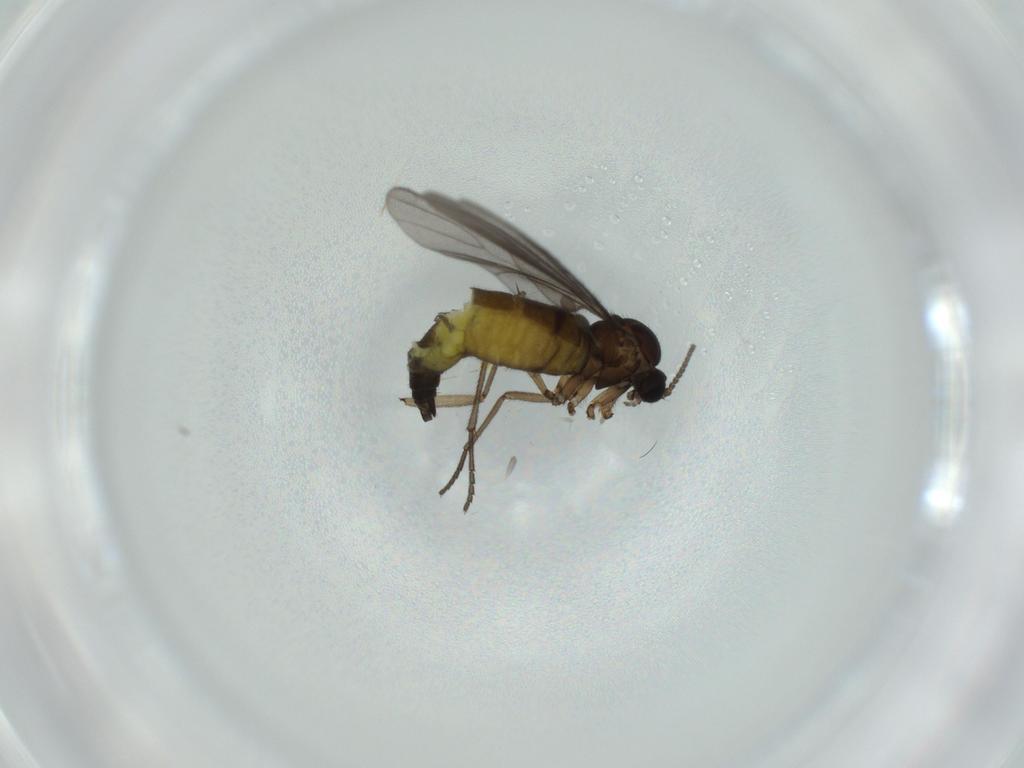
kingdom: Animalia
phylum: Arthropoda
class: Insecta
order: Diptera
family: Sciaridae
